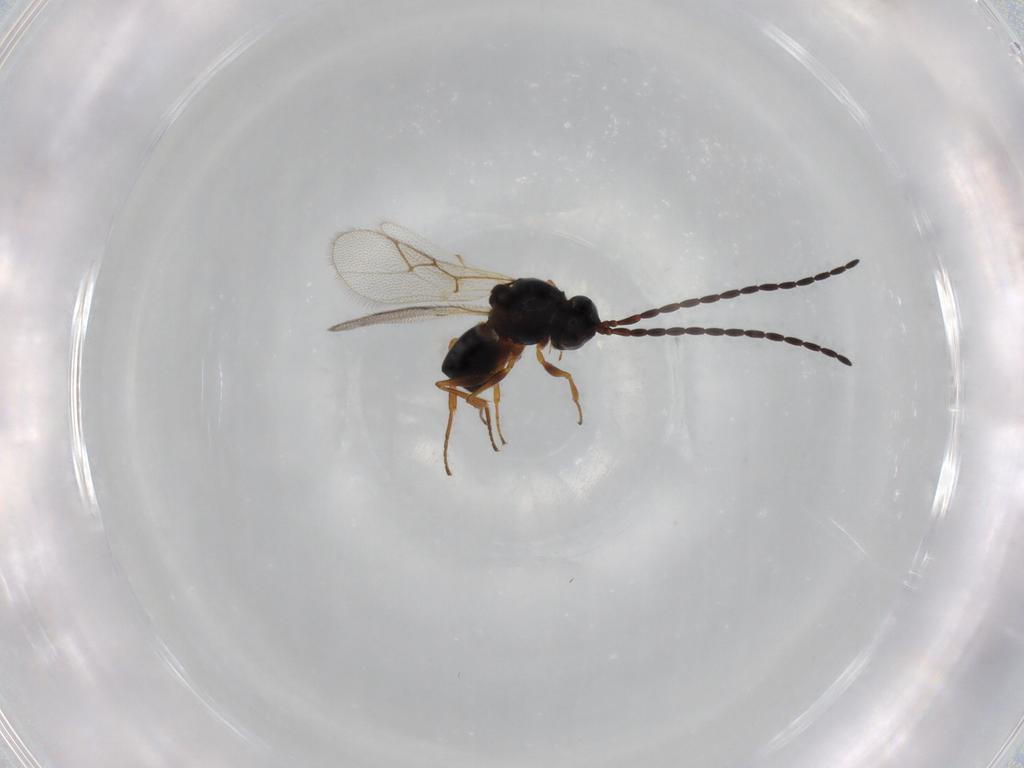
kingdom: Animalia
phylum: Arthropoda
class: Insecta
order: Hymenoptera
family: Figitidae
